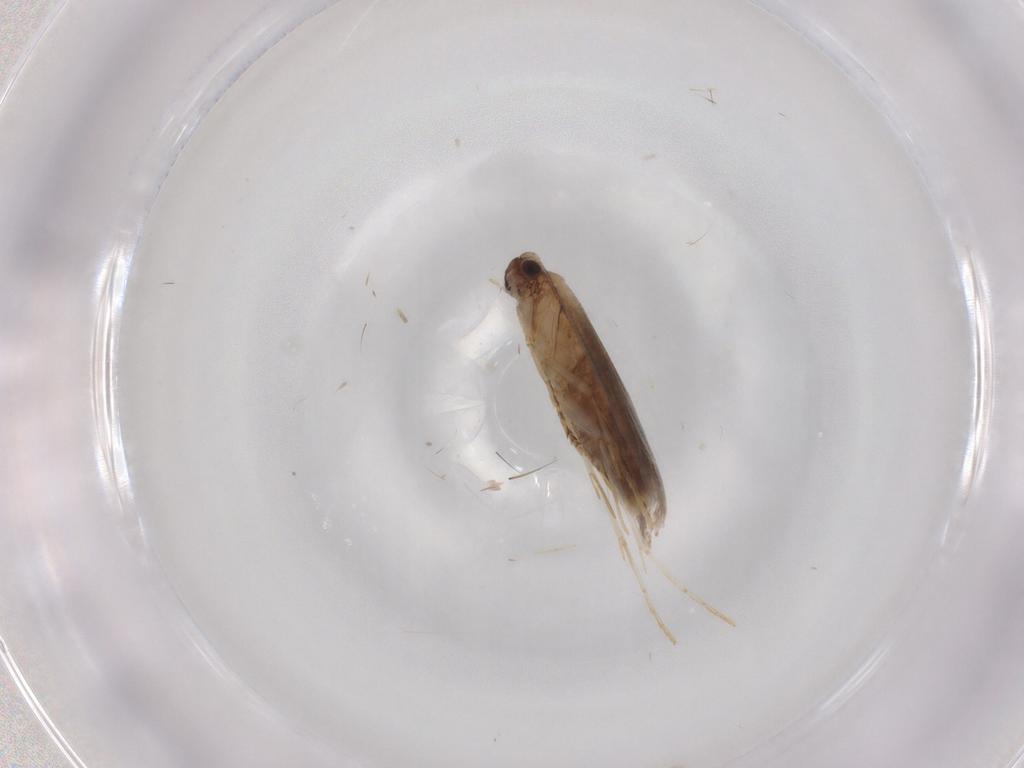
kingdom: Animalia
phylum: Arthropoda
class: Insecta
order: Lepidoptera
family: Tineidae
